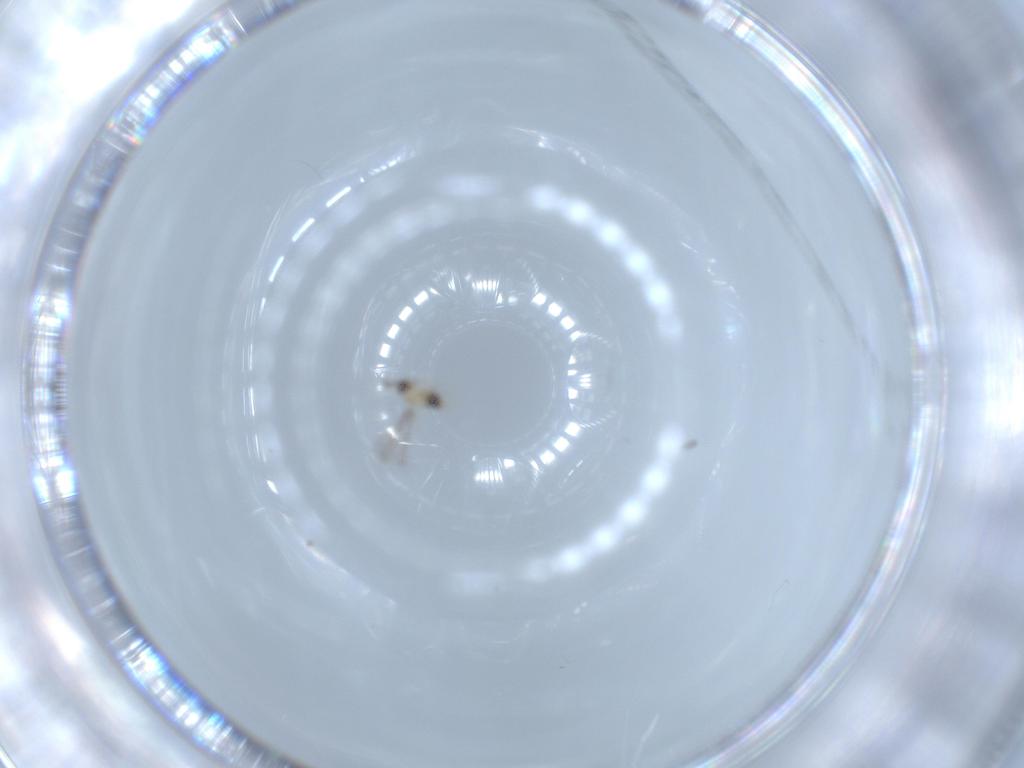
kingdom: Animalia
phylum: Arthropoda
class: Insecta
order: Hymenoptera
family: Mymaridae
